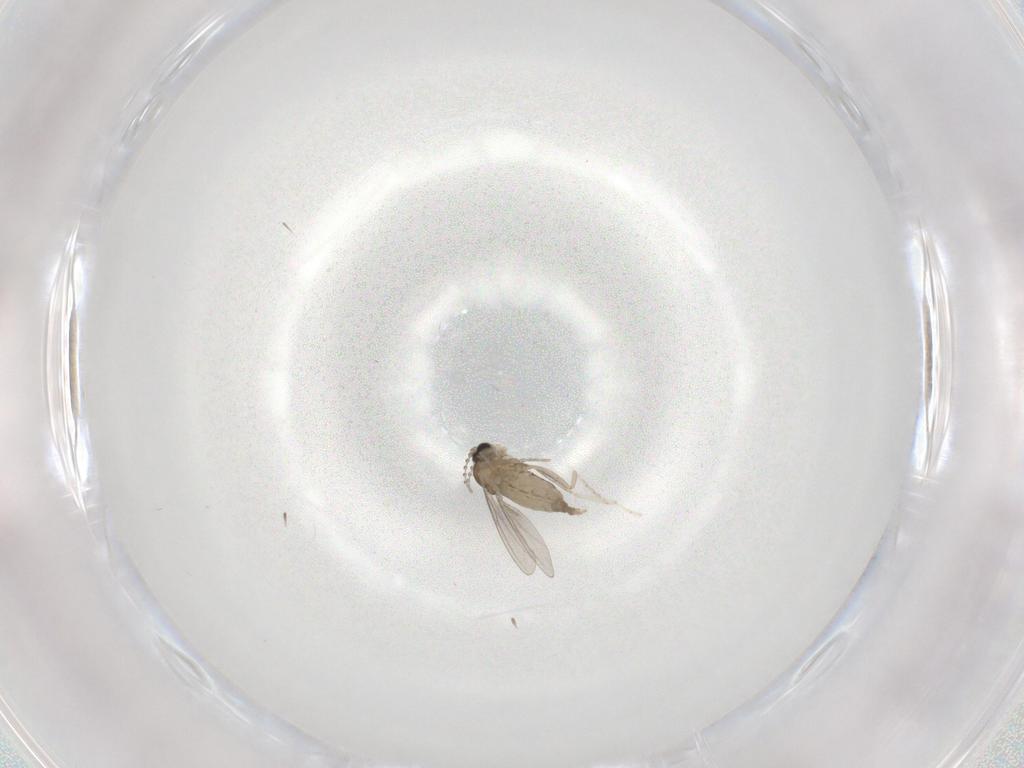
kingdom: Animalia
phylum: Arthropoda
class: Insecta
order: Diptera
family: Cecidomyiidae
